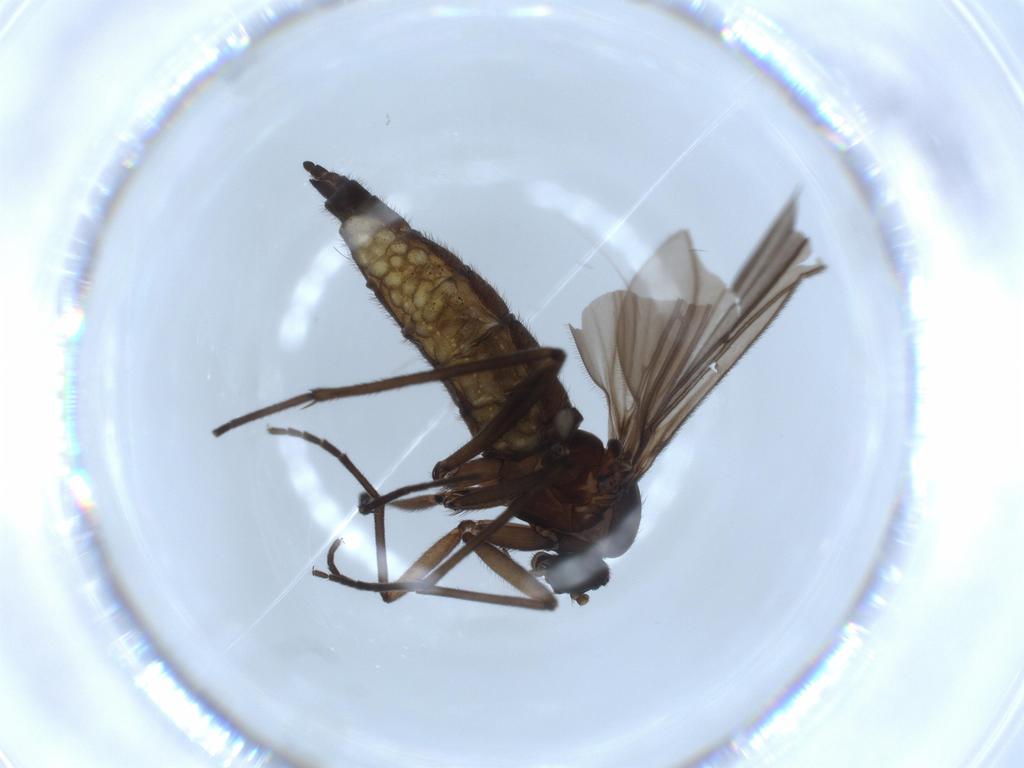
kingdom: Animalia
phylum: Arthropoda
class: Insecta
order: Diptera
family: Sciaridae
